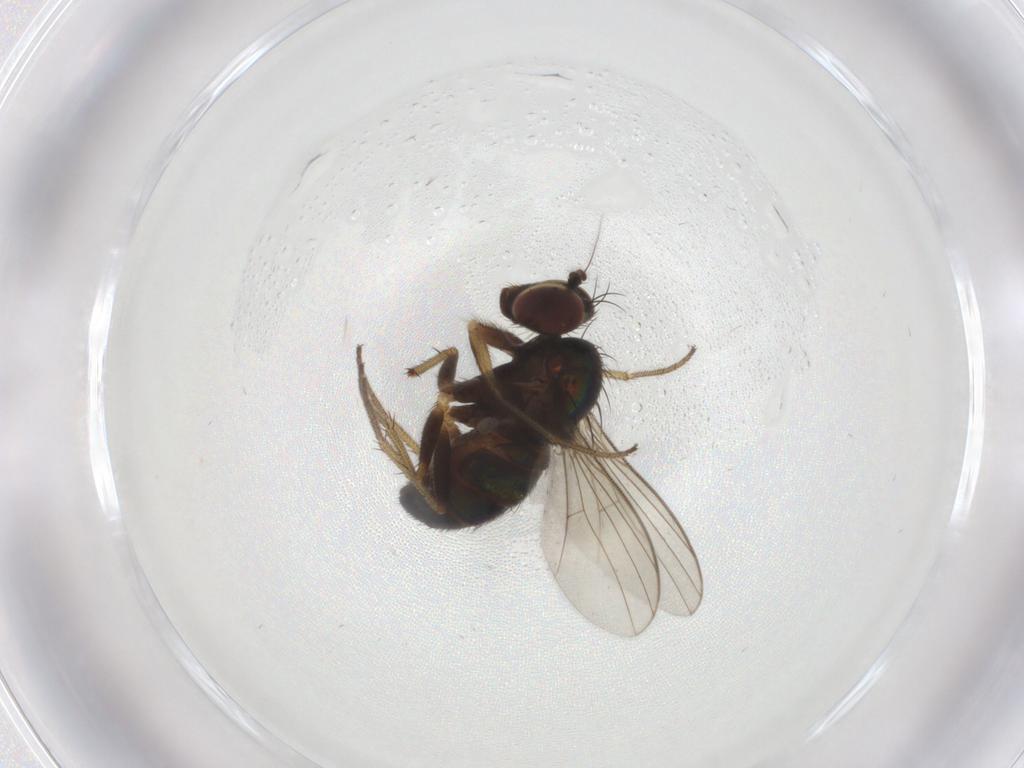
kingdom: Animalia
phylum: Arthropoda
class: Insecta
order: Diptera
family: Dolichopodidae
